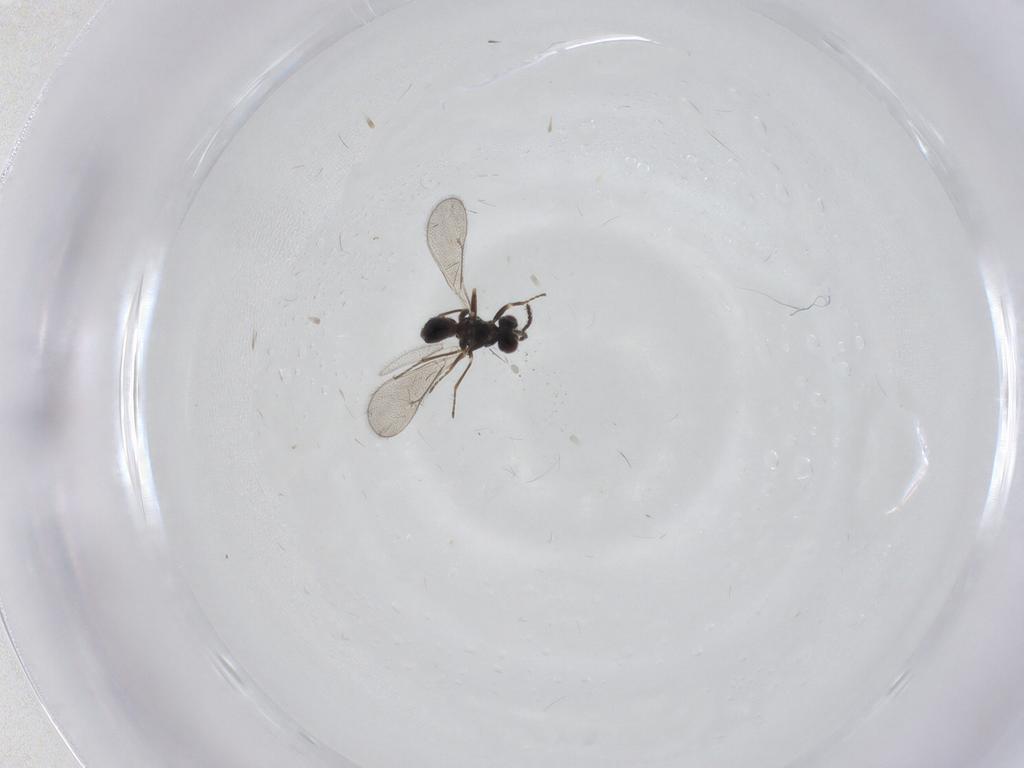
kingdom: Animalia
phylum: Arthropoda
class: Insecta
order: Hymenoptera
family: Eulophidae
